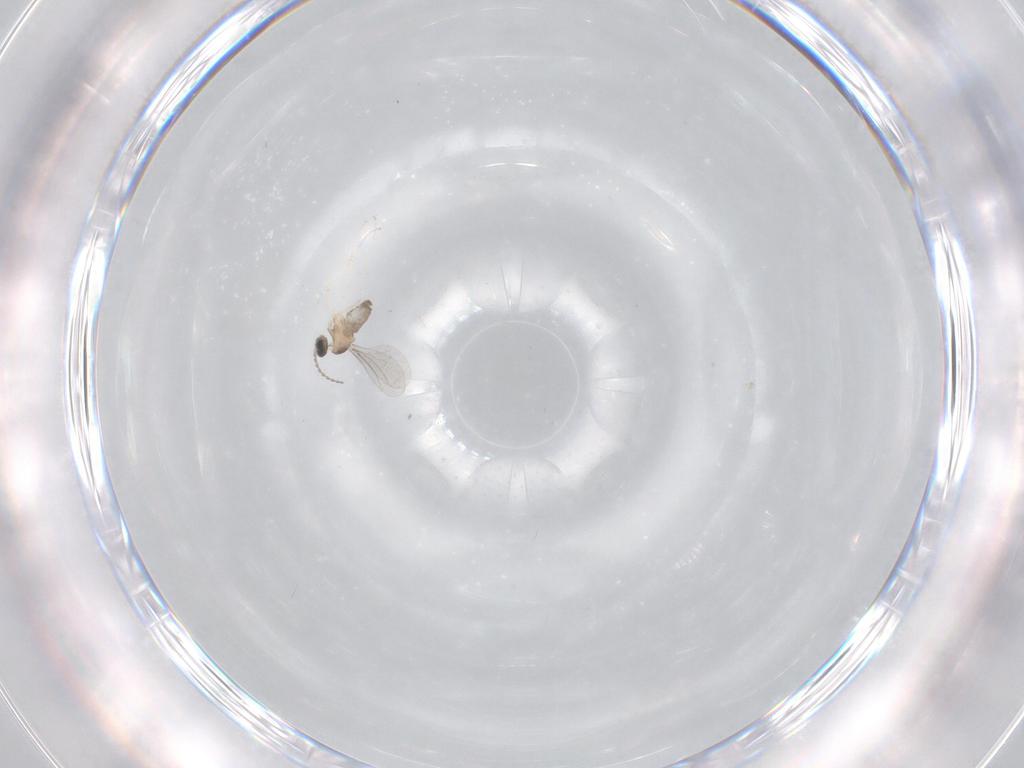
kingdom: Animalia
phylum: Arthropoda
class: Insecta
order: Diptera
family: Cecidomyiidae
